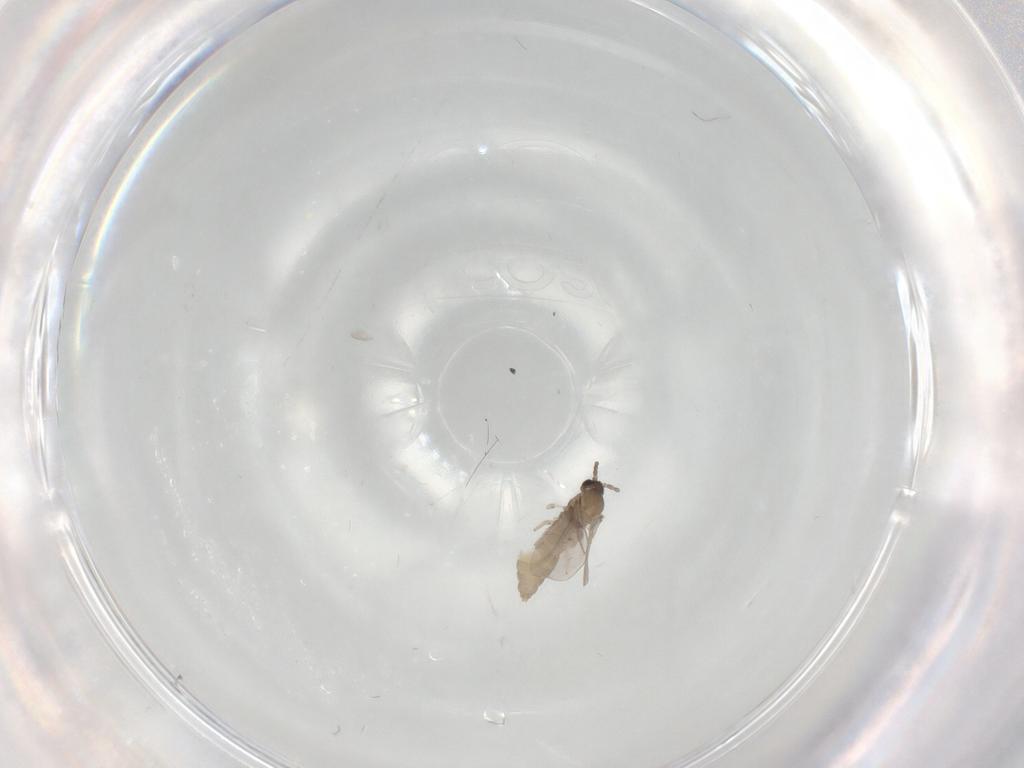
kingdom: Animalia
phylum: Arthropoda
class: Insecta
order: Diptera
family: Cecidomyiidae
